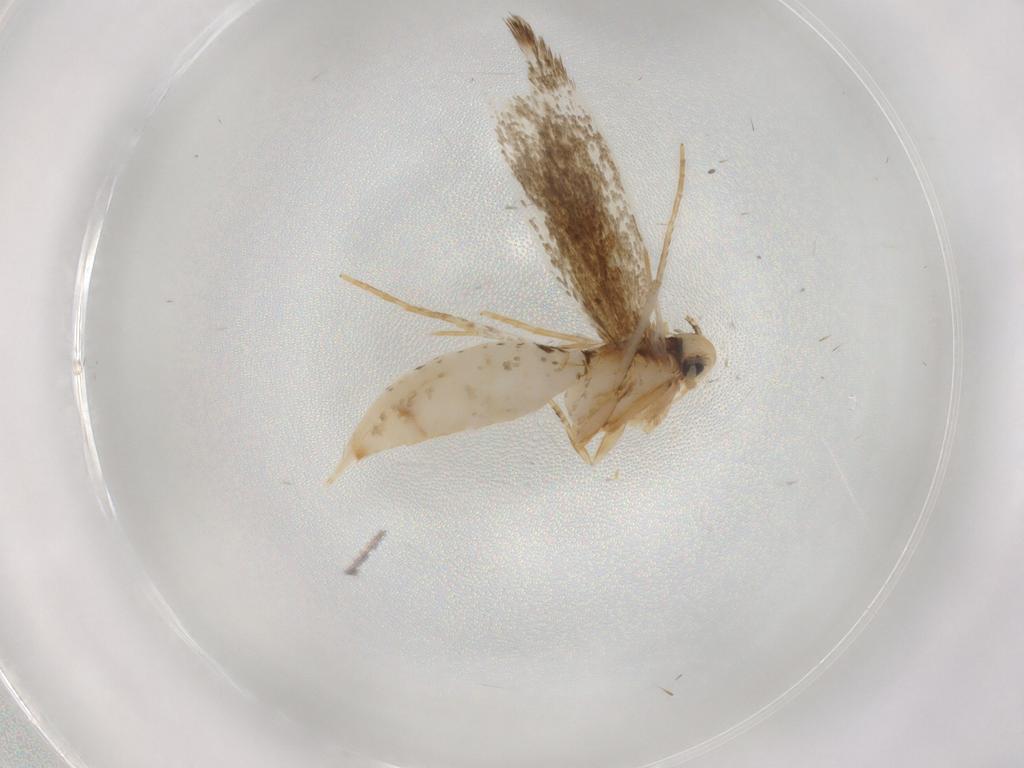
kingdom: Animalia
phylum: Arthropoda
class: Insecta
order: Lepidoptera
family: Tineidae
